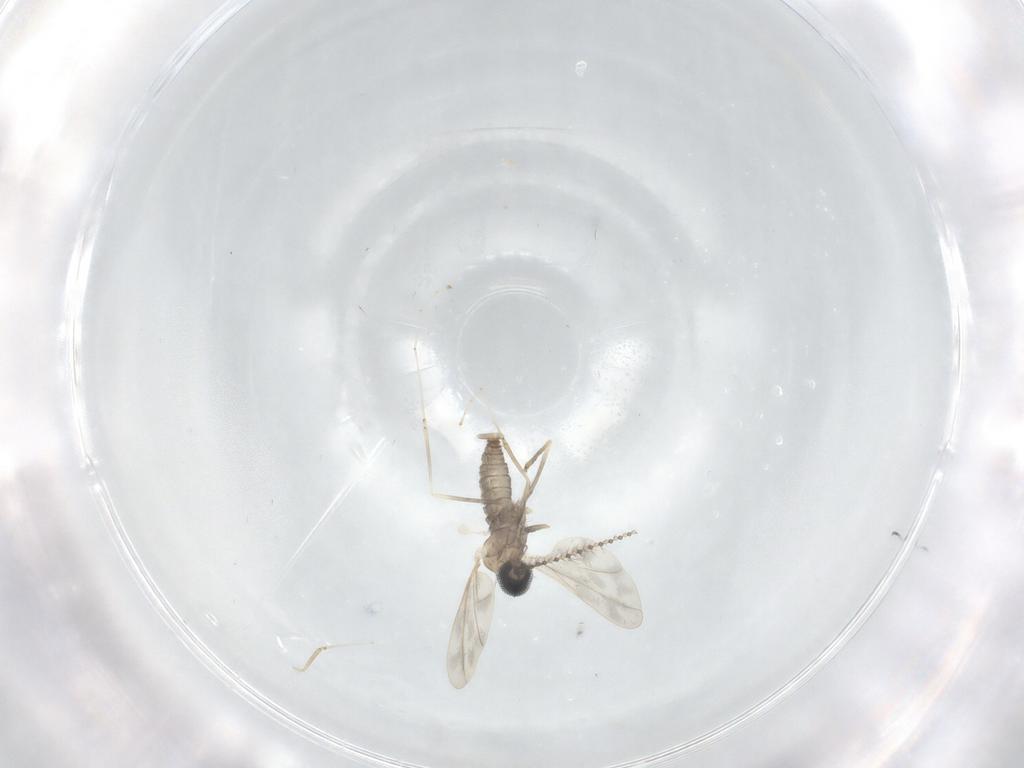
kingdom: Animalia
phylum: Arthropoda
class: Insecta
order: Diptera
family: Cecidomyiidae
